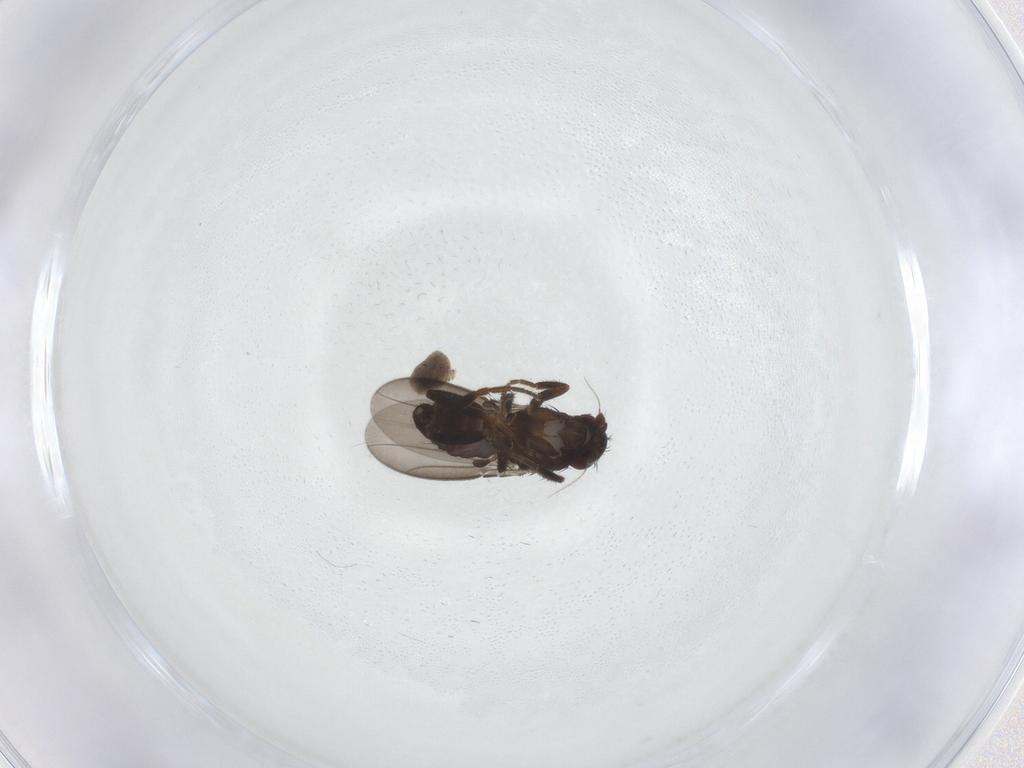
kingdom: Animalia
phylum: Arthropoda
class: Insecta
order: Diptera
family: Sphaeroceridae
